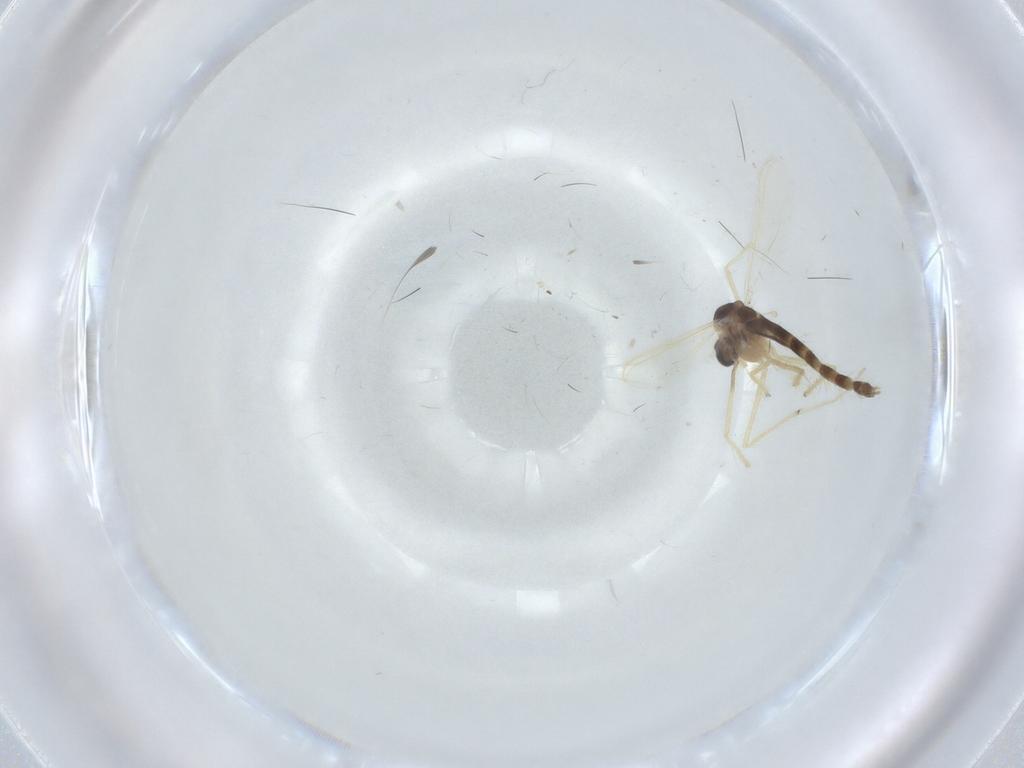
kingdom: Animalia
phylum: Arthropoda
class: Insecta
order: Diptera
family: Chironomidae
